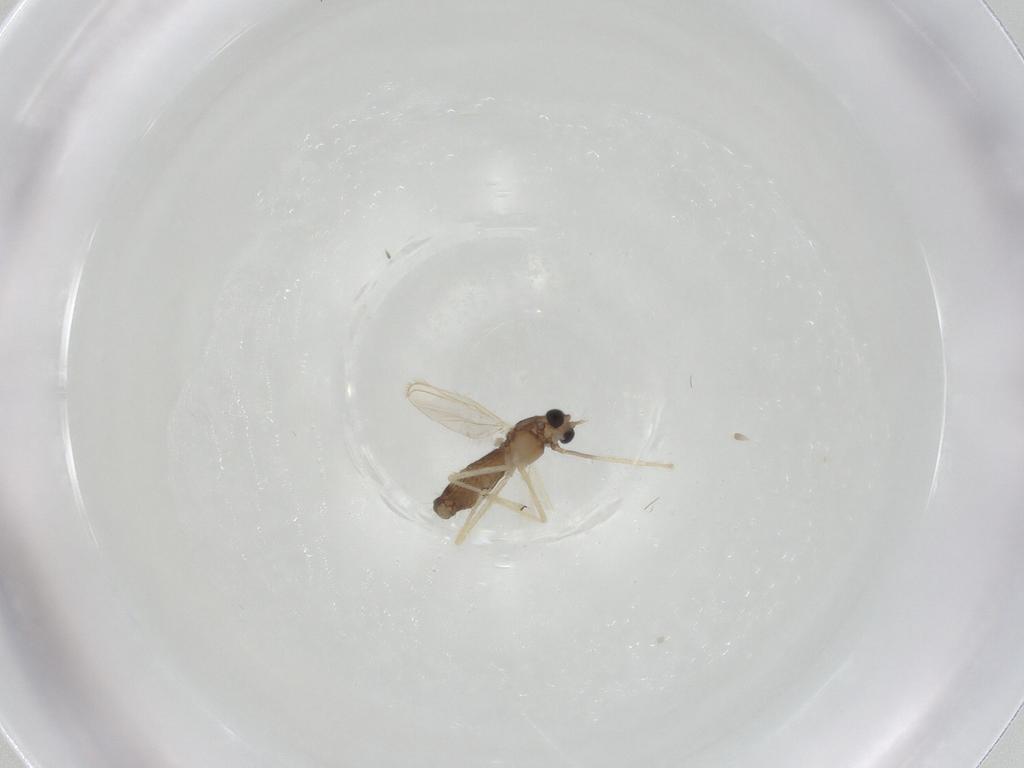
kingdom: Animalia
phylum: Arthropoda
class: Insecta
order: Diptera
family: Chironomidae
